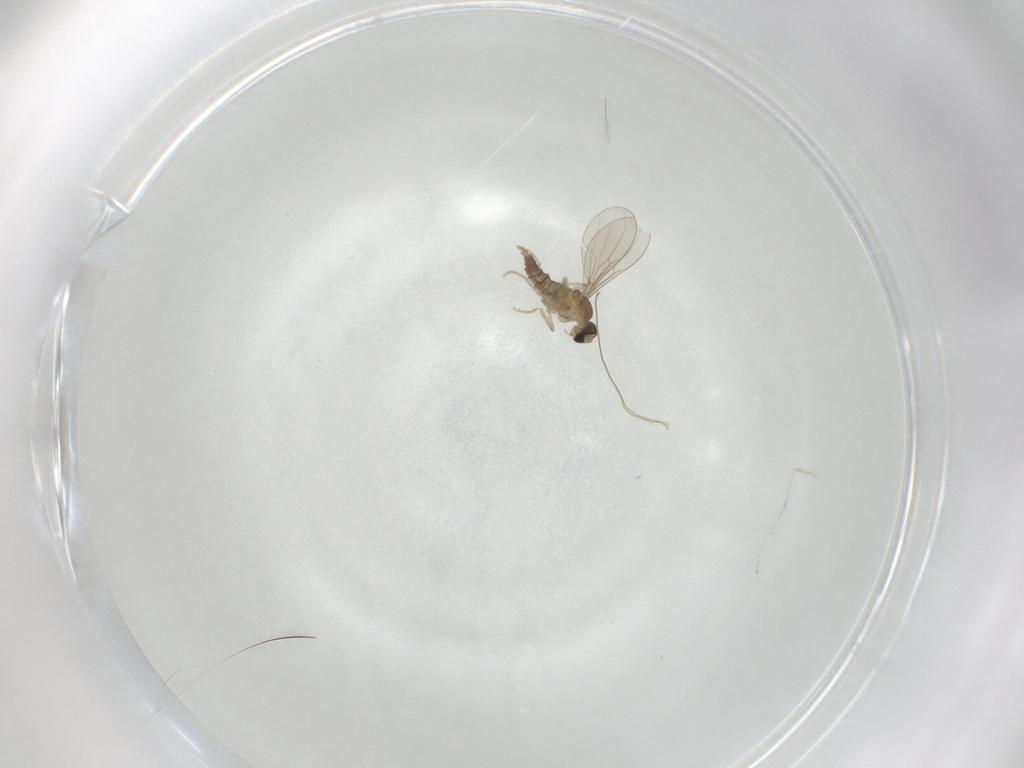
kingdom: Animalia
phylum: Arthropoda
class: Insecta
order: Diptera
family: Cecidomyiidae
